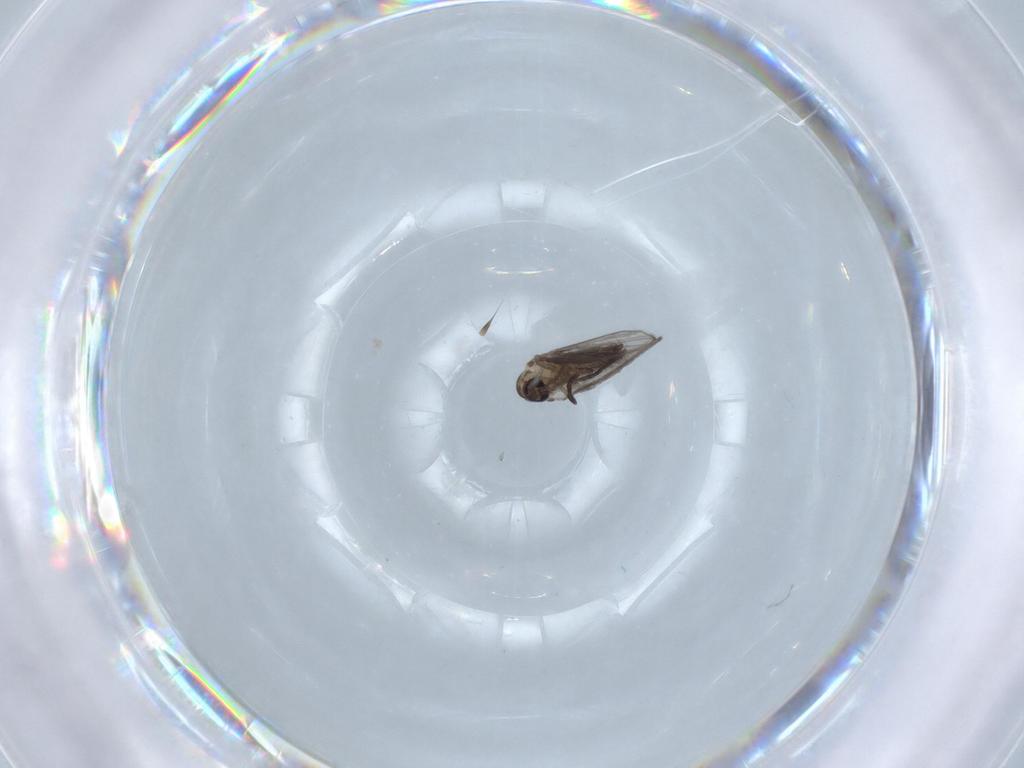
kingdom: Animalia
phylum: Arthropoda
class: Insecta
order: Diptera
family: Psychodidae
